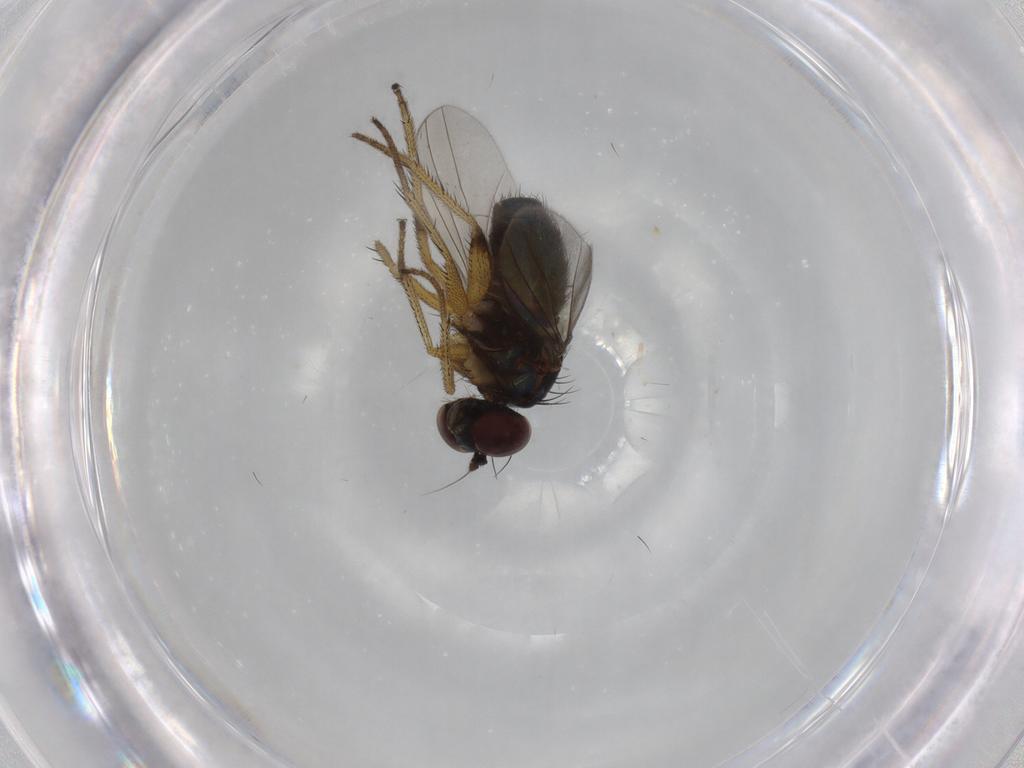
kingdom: Animalia
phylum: Arthropoda
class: Insecta
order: Diptera
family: Dolichopodidae
